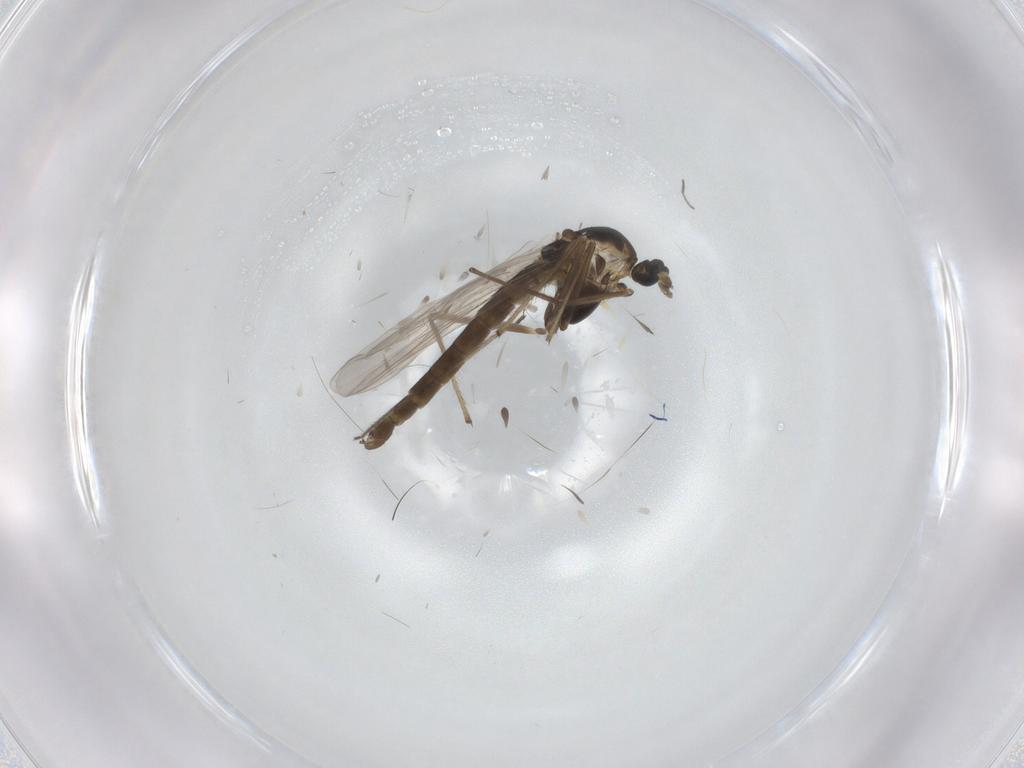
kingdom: Animalia
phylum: Arthropoda
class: Insecta
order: Diptera
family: Chironomidae
